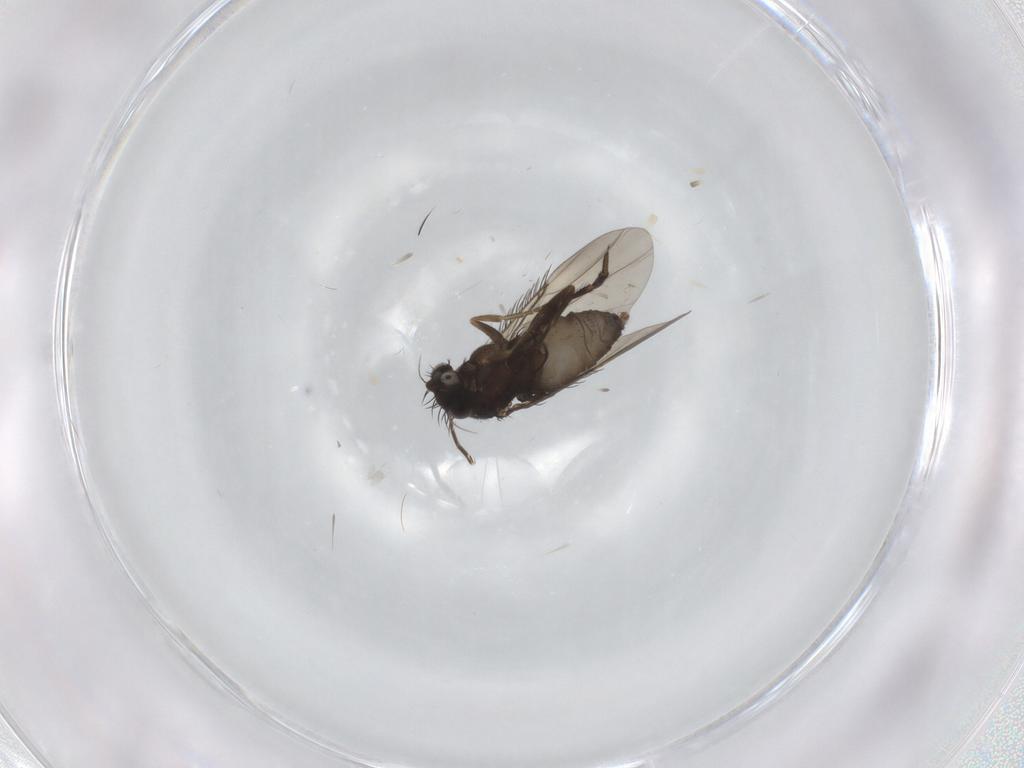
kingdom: Animalia
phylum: Arthropoda
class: Insecta
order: Diptera
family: Phoridae
